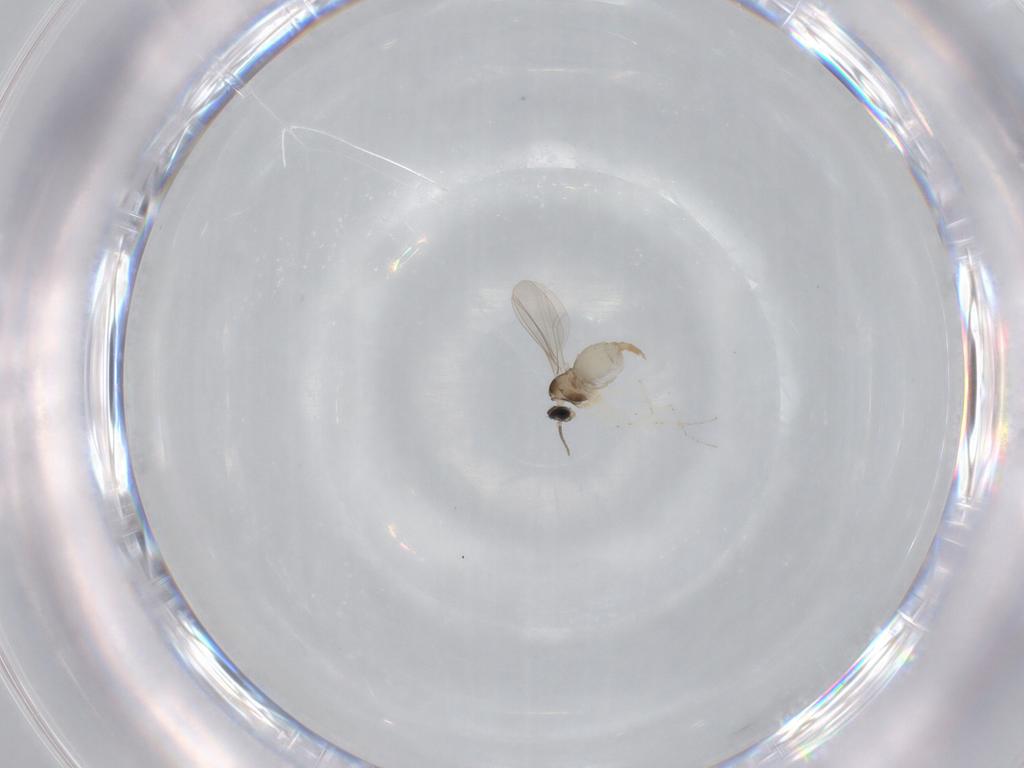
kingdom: Animalia
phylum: Arthropoda
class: Insecta
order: Diptera
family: Cecidomyiidae
